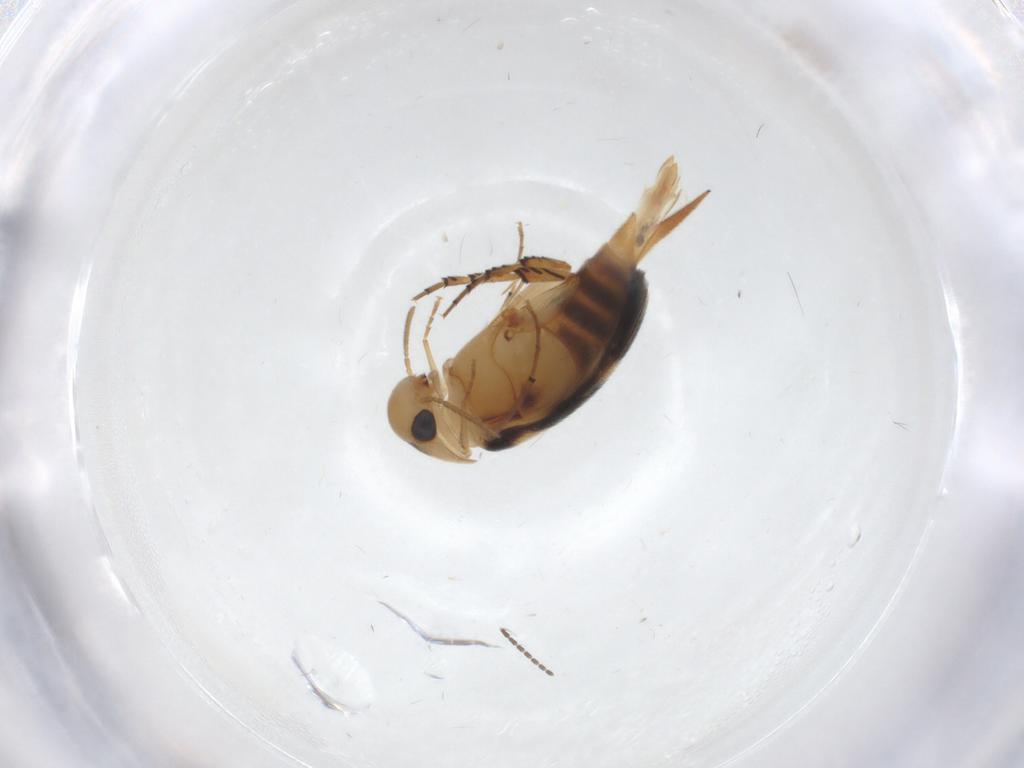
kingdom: Animalia
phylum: Arthropoda
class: Insecta
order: Coleoptera
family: Mordellidae
